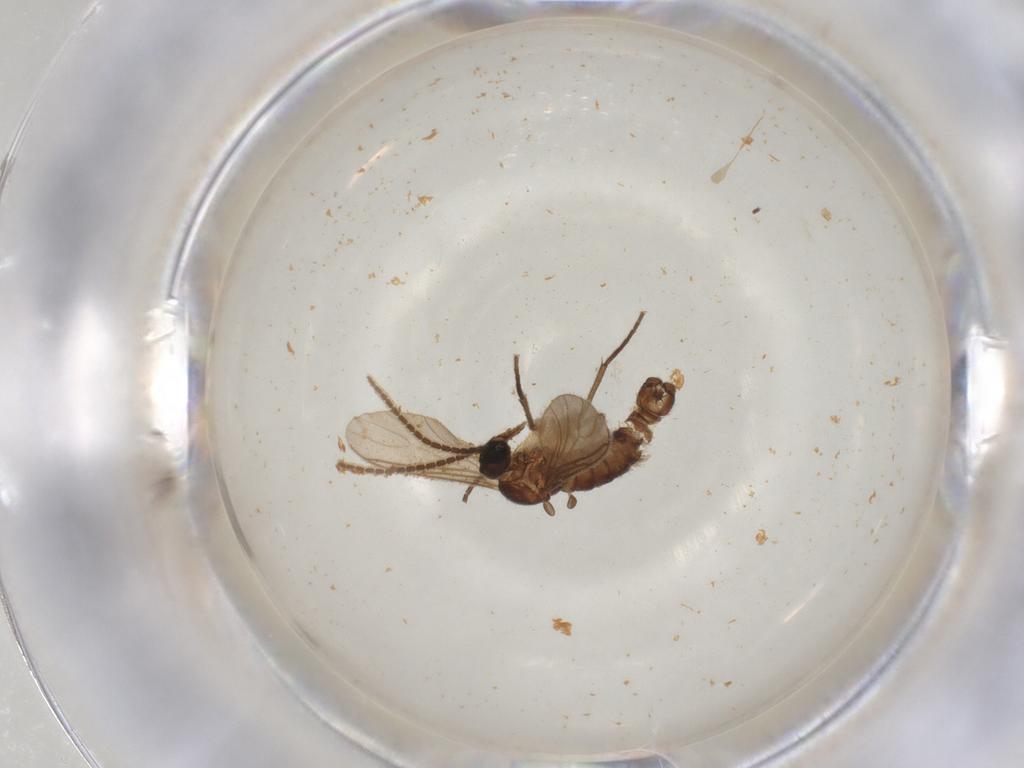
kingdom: Animalia
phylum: Arthropoda
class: Insecta
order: Diptera
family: Sciaridae
